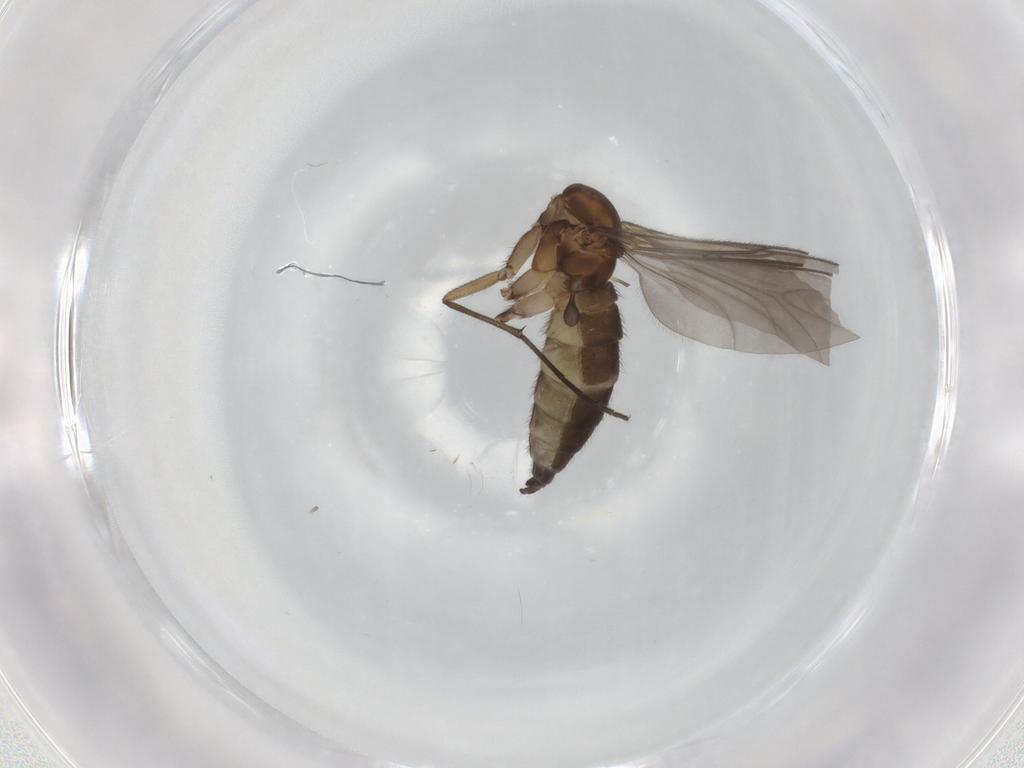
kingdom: Animalia
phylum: Arthropoda
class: Insecta
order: Diptera
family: Sciaridae
